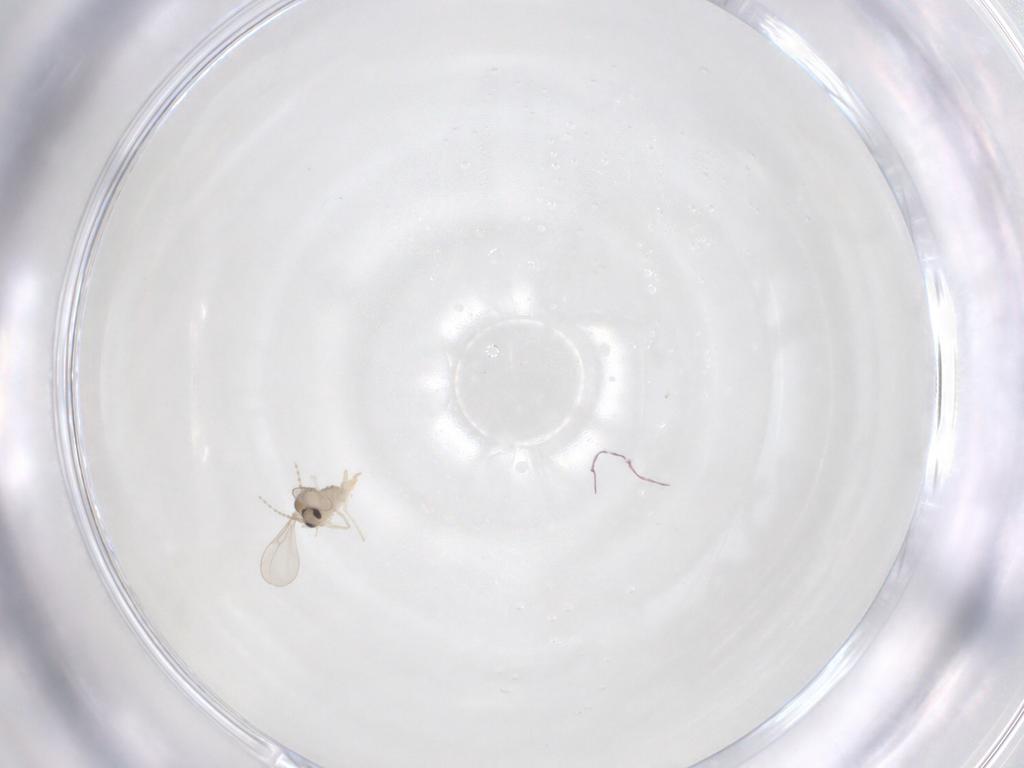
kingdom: Animalia
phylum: Arthropoda
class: Insecta
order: Diptera
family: Cecidomyiidae
